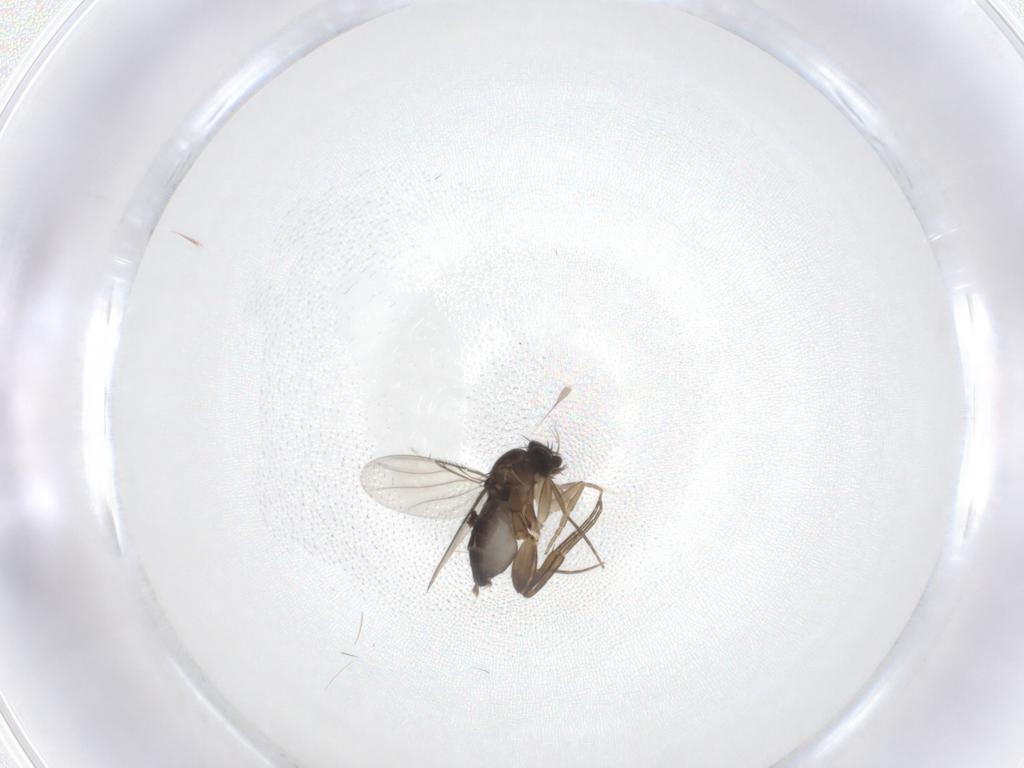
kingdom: Animalia
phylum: Arthropoda
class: Insecta
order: Diptera
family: Phoridae
